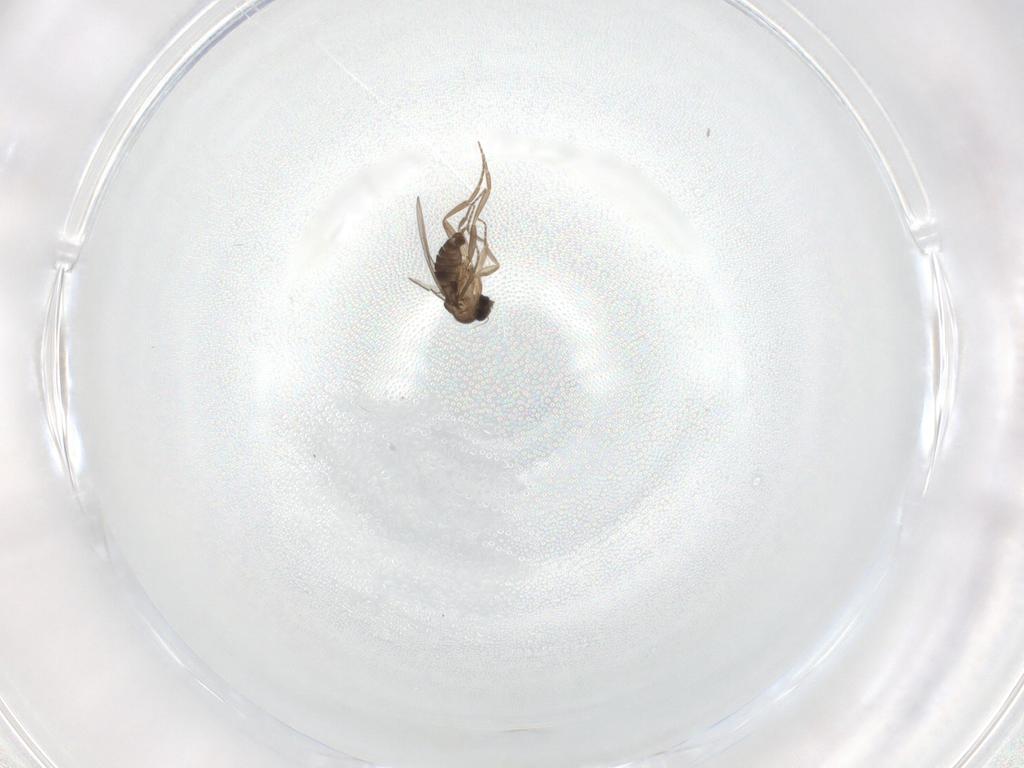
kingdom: Animalia
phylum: Arthropoda
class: Insecta
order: Diptera
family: Phoridae
